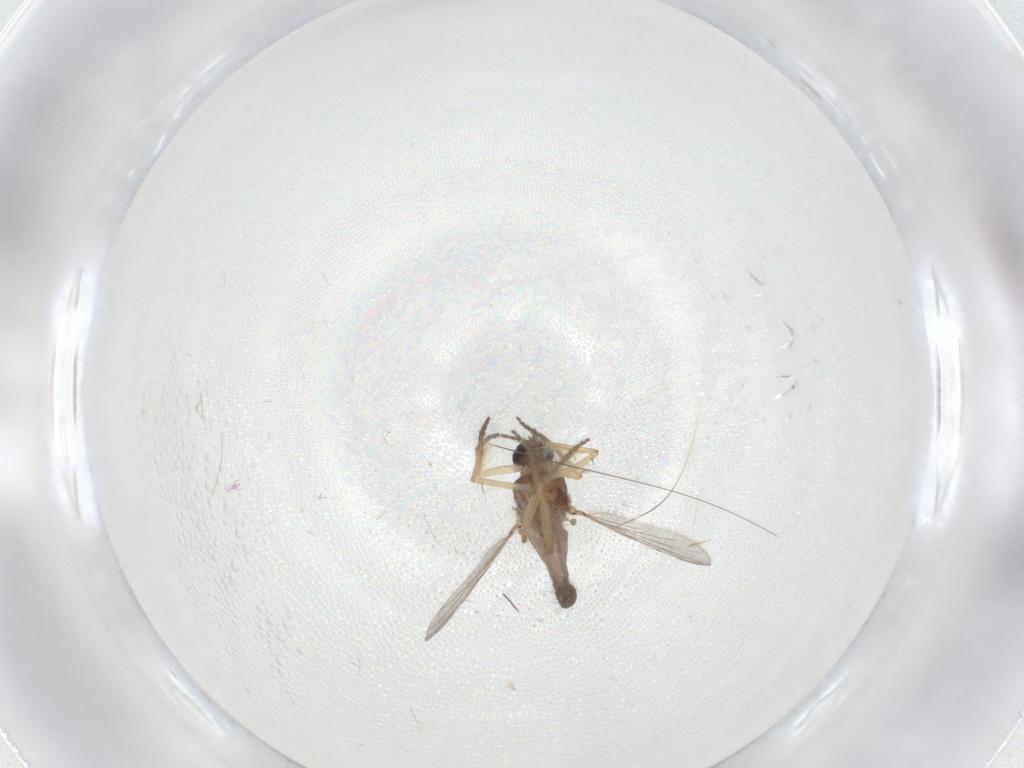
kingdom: Animalia
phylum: Arthropoda
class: Insecta
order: Diptera
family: Ceratopogonidae
